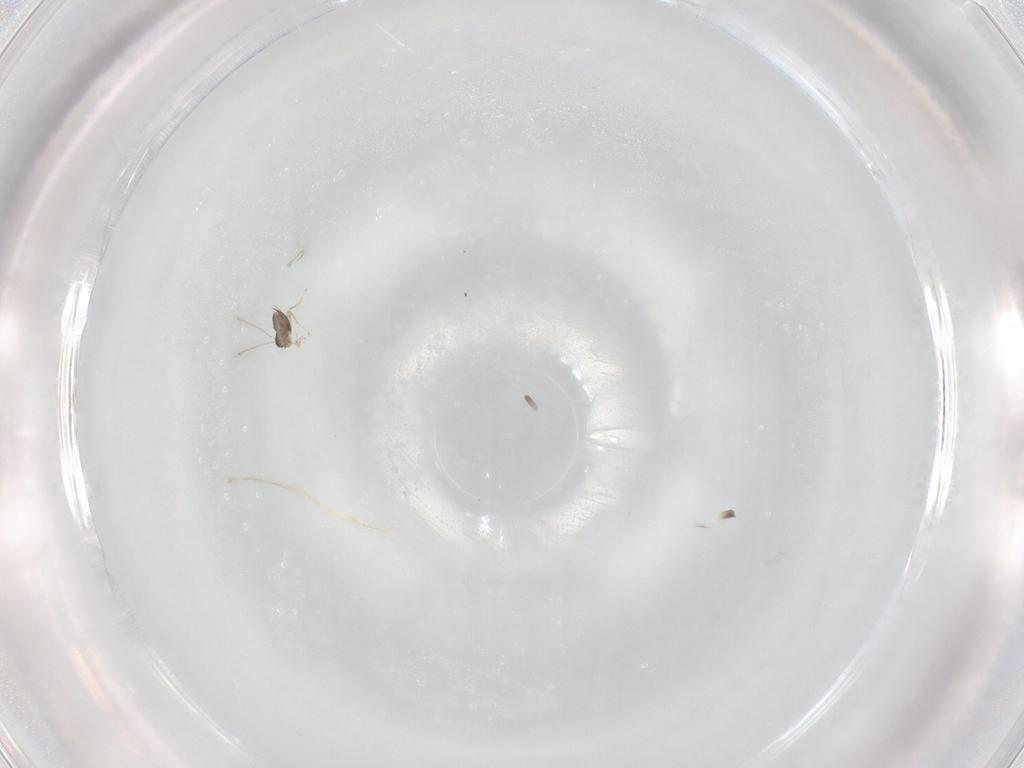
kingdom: Animalia
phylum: Arthropoda
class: Insecta
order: Hymenoptera
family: Mymaridae
